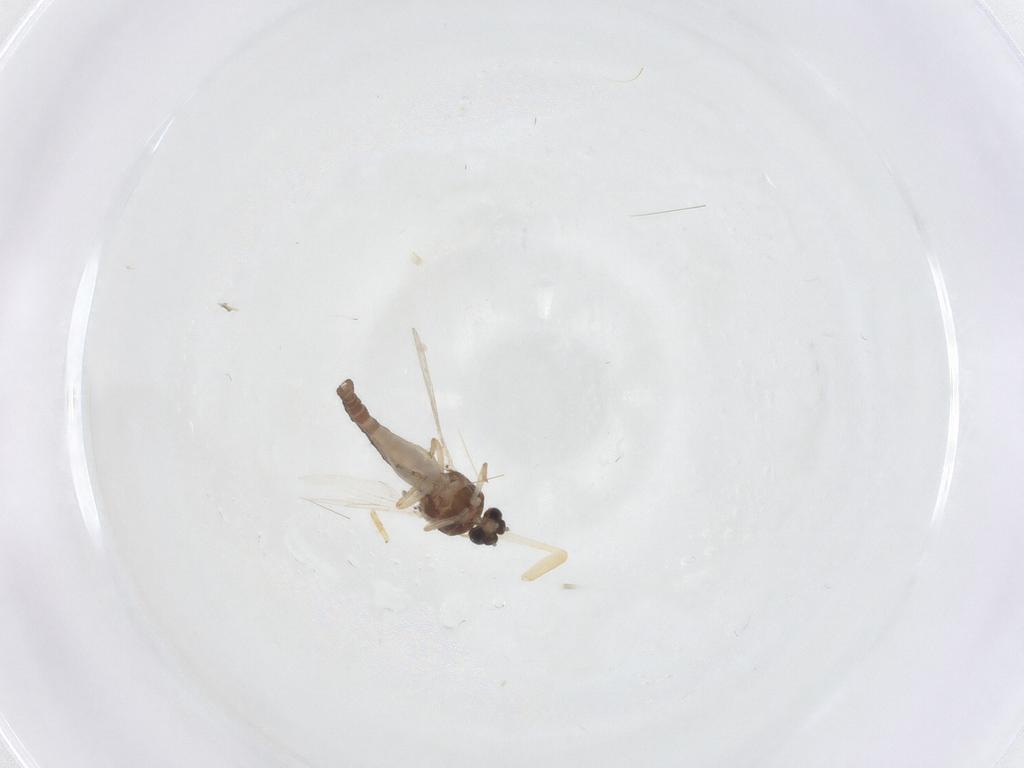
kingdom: Animalia
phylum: Arthropoda
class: Insecta
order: Diptera
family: Ceratopogonidae
